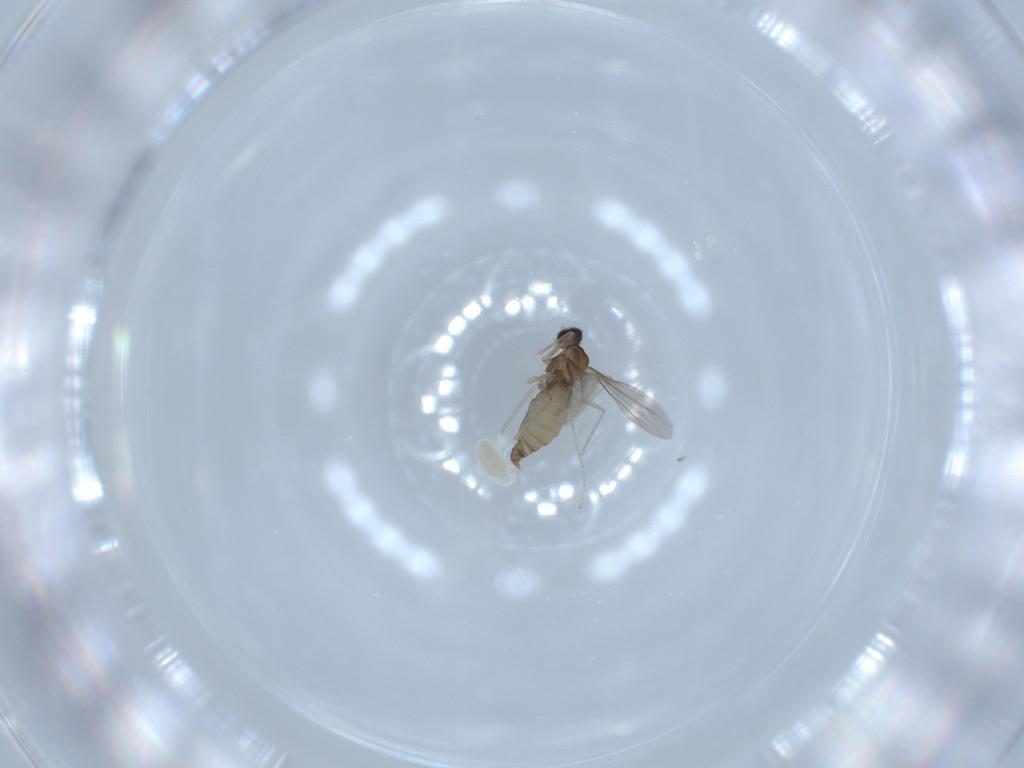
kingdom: Animalia
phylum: Arthropoda
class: Insecta
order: Diptera
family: Cecidomyiidae
